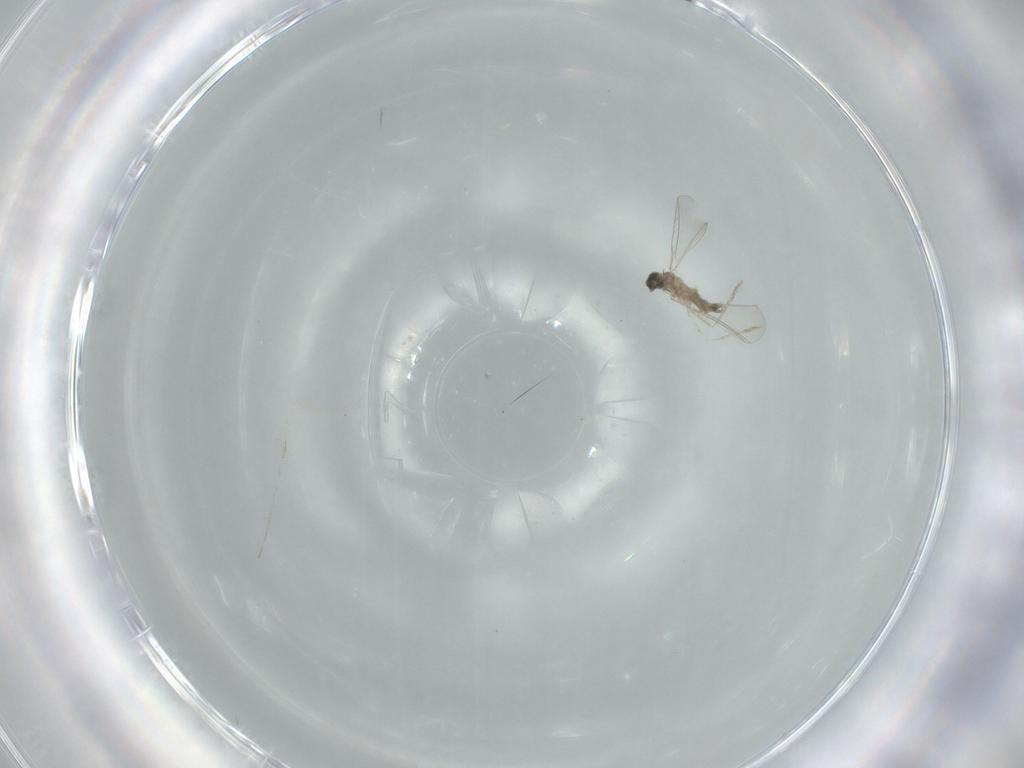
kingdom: Animalia
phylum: Arthropoda
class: Insecta
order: Diptera
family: Cecidomyiidae
